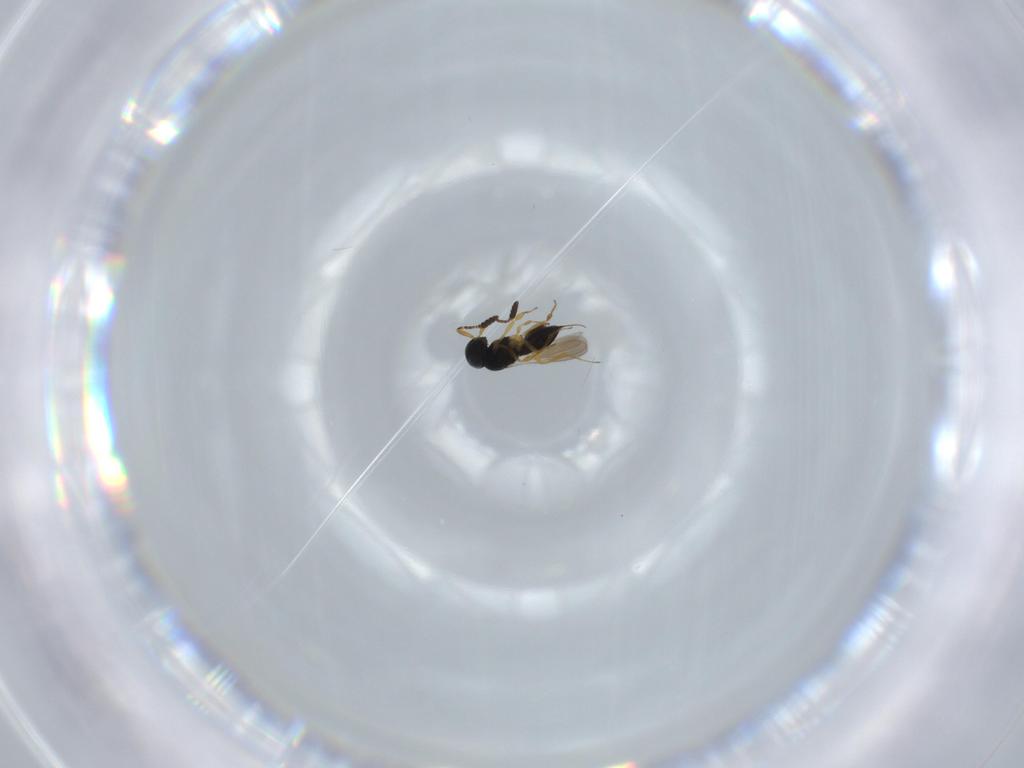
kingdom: Animalia
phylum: Arthropoda
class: Insecta
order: Hymenoptera
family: Scelionidae
